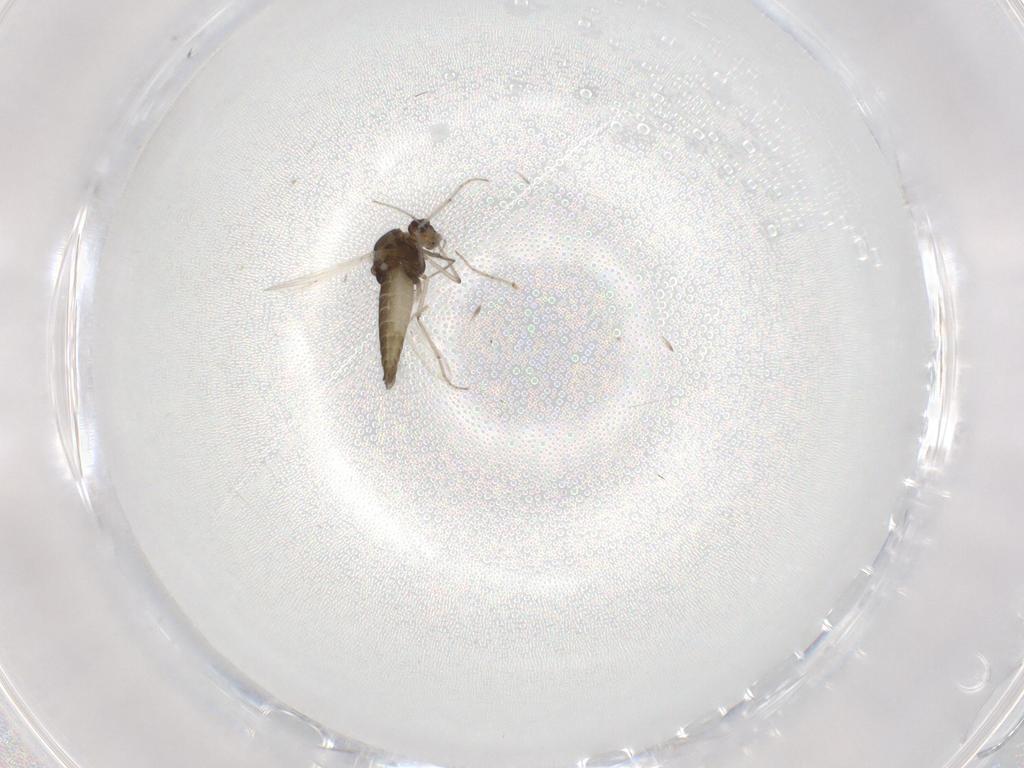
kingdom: Animalia
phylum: Arthropoda
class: Insecta
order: Diptera
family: Chironomidae
